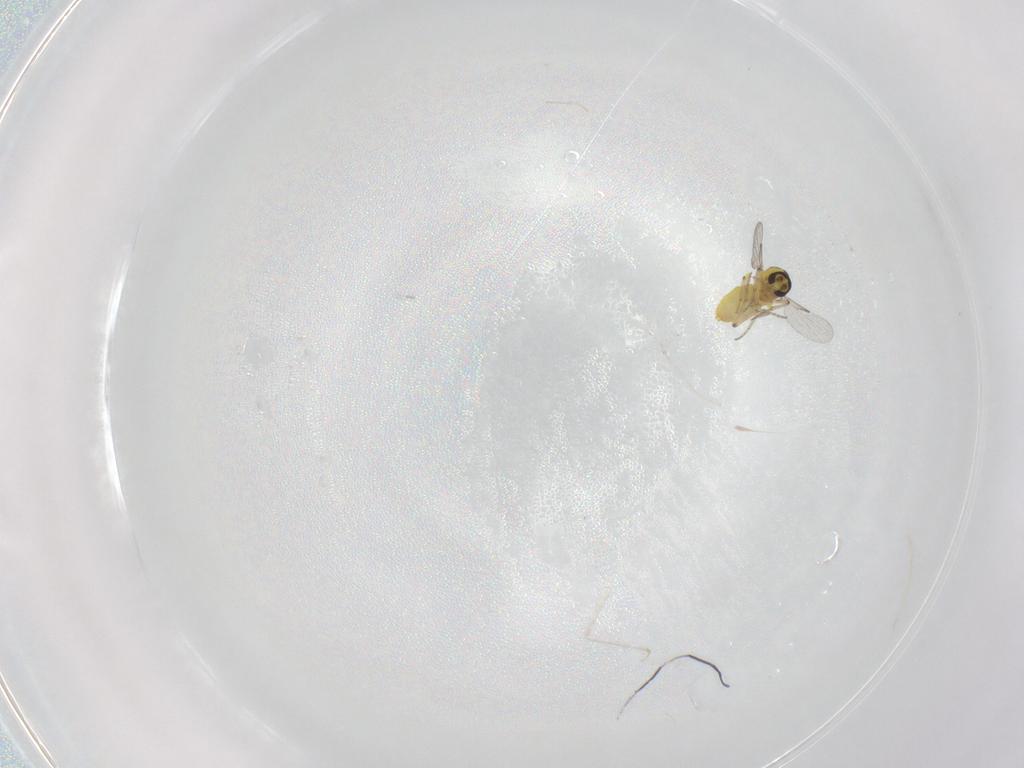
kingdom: Animalia
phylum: Arthropoda
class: Insecta
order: Diptera
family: Ceratopogonidae
